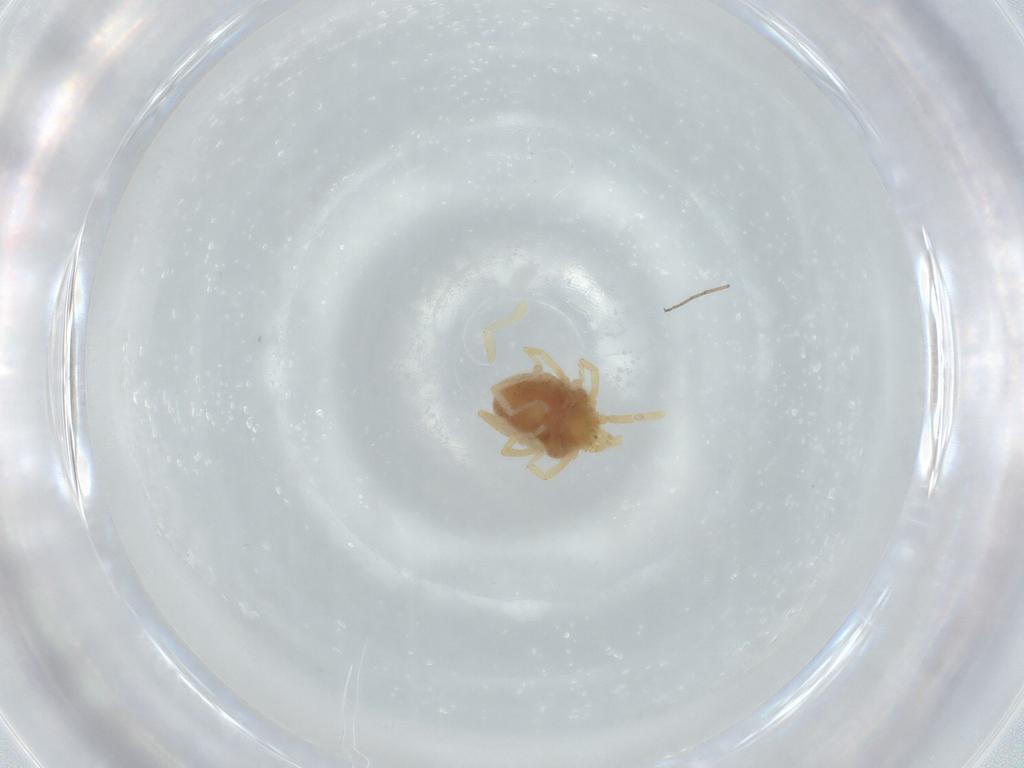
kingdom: Animalia
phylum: Arthropoda
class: Arachnida
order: Trombidiformes
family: Erythraeidae
